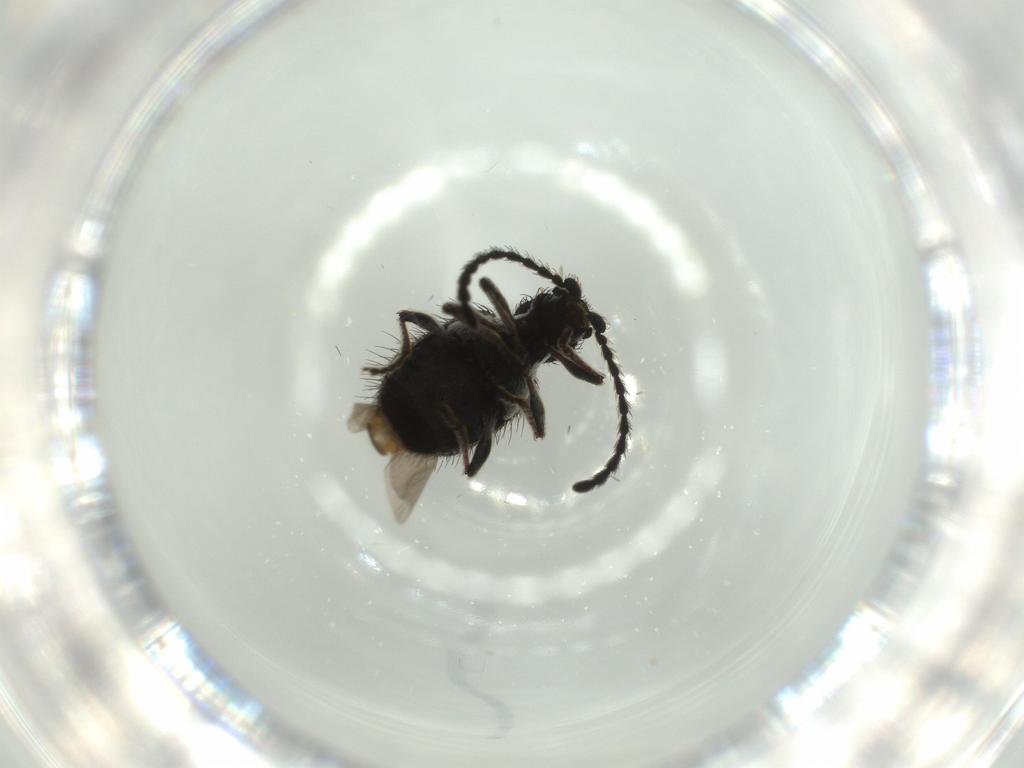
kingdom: Animalia
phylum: Arthropoda
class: Insecta
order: Coleoptera
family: Chrysomelidae
